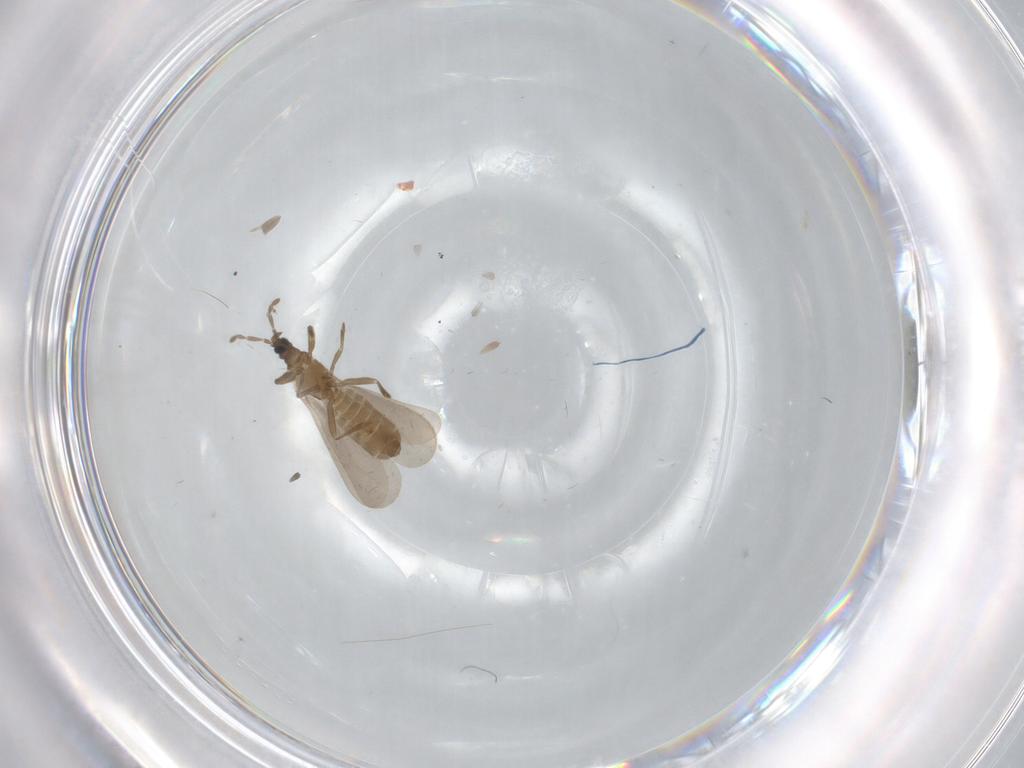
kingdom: Animalia
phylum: Arthropoda
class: Insecta
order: Hemiptera
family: Enicocephalidae
